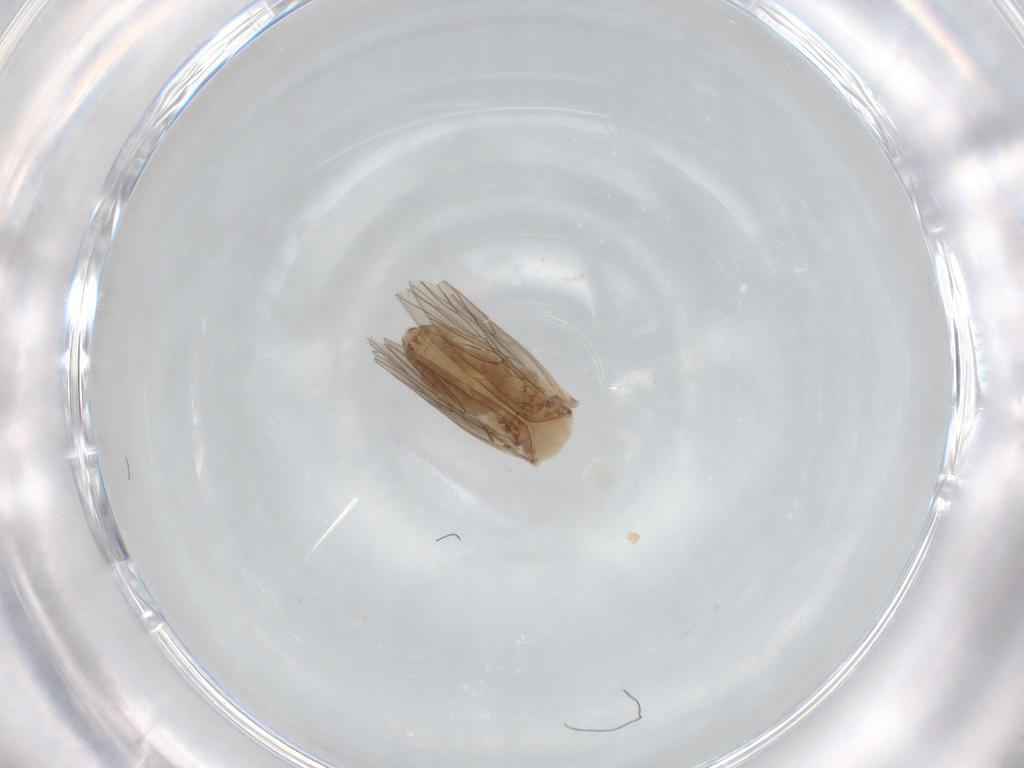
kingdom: Animalia
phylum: Arthropoda
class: Insecta
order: Psocodea
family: Lepidopsocidae
